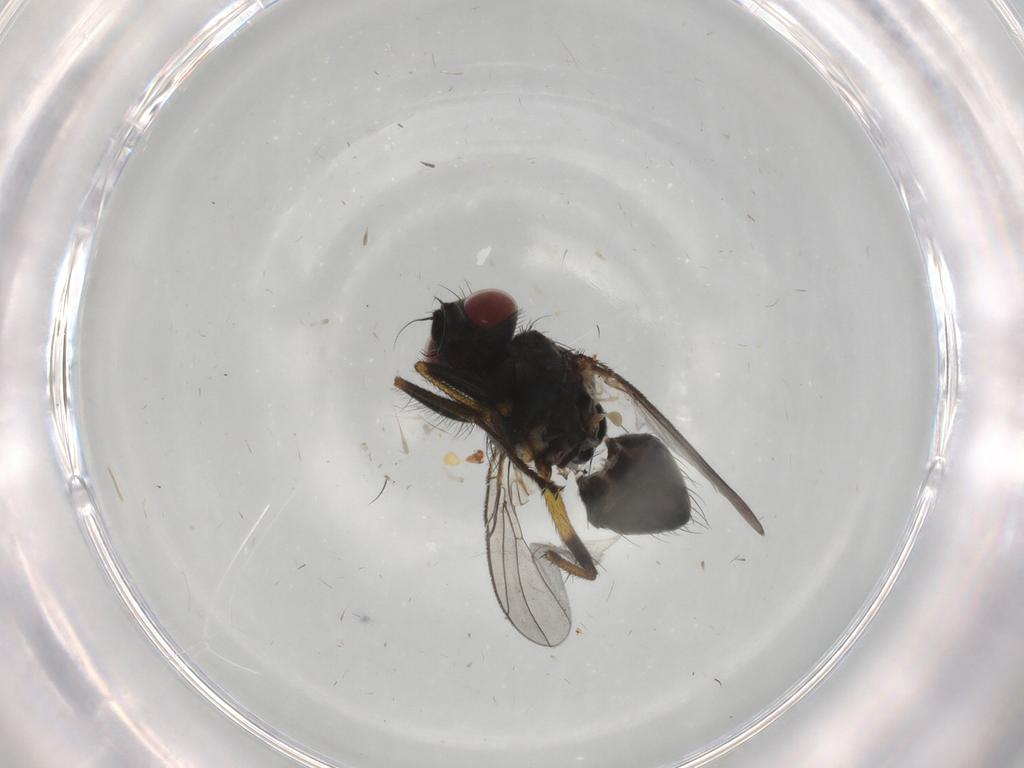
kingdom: Animalia
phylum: Arthropoda
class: Insecta
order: Diptera
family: Muscidae
